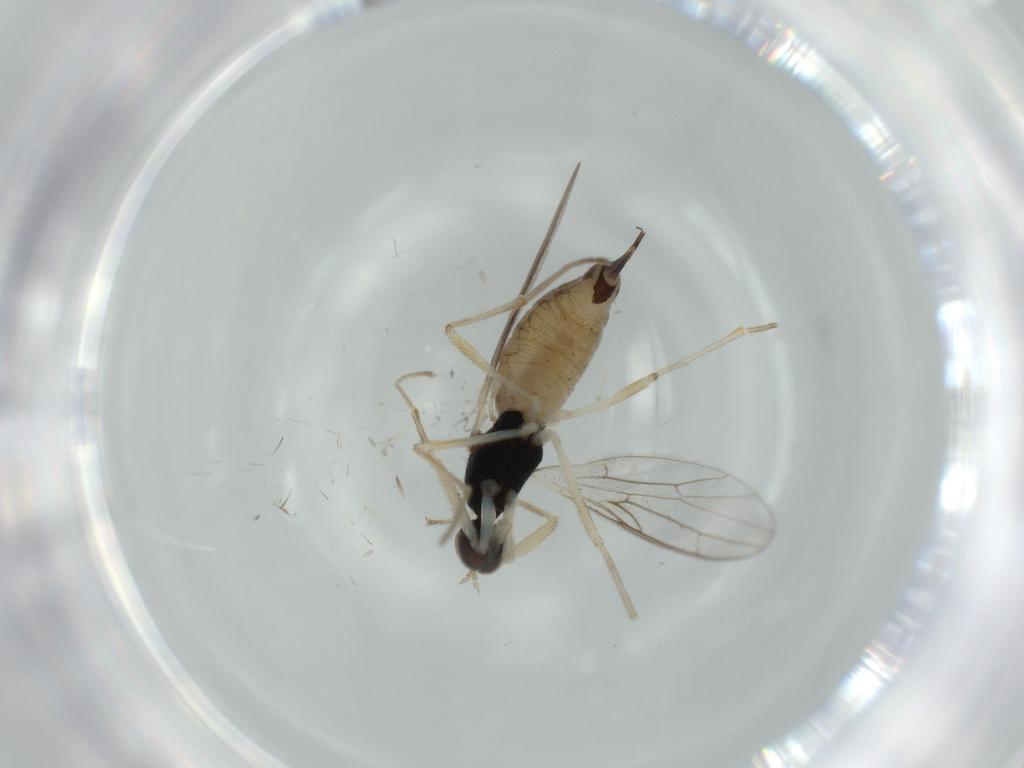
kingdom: Animalia
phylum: Arthropoda
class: Insecta
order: Diptera
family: Empididae
